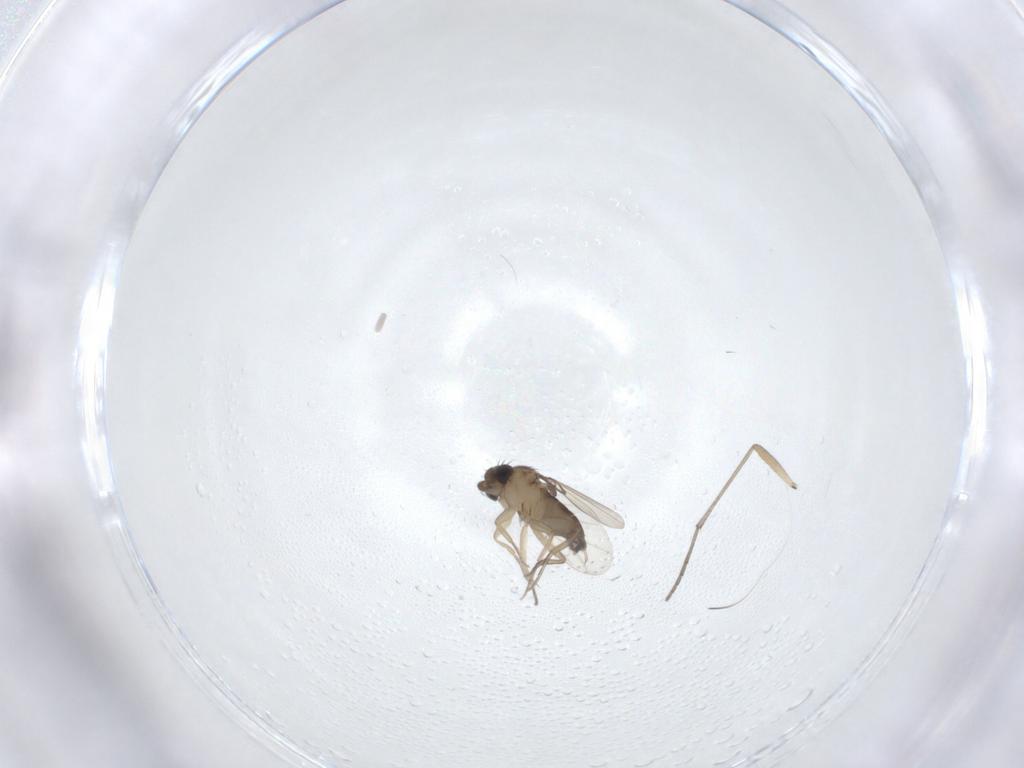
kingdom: Animalia
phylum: Arthropoda
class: Insecta
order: Diptera
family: Phoridae
